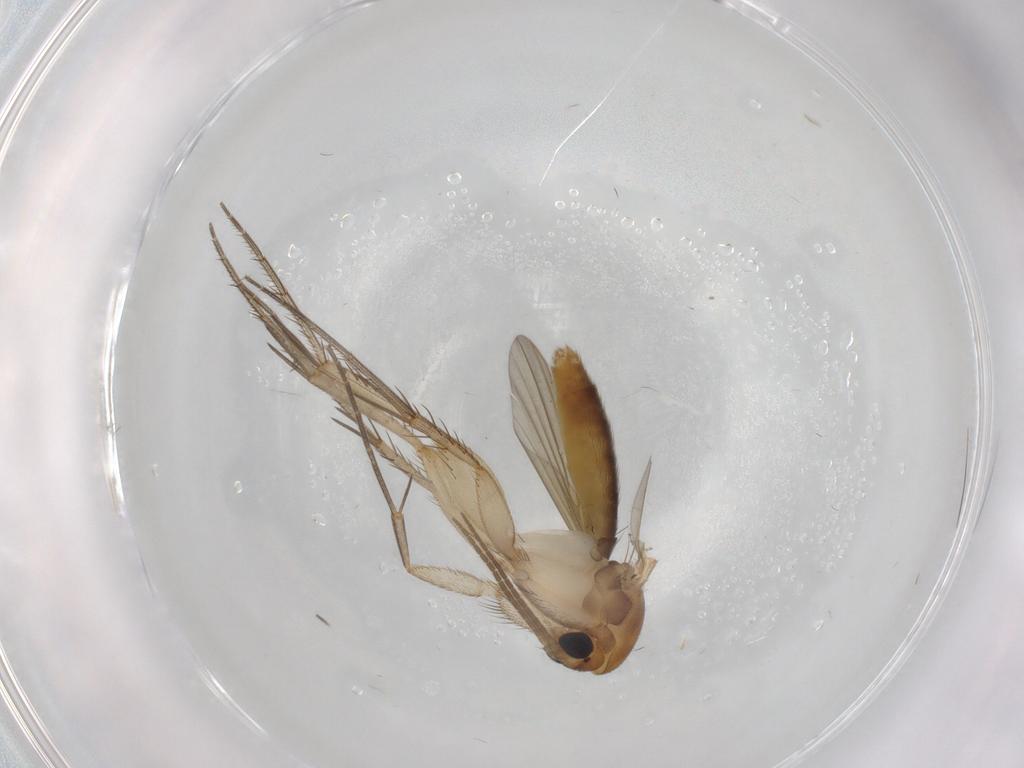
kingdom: Animalia
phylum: Arthropoda
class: Insecta
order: Diptera
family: Mycetophilidae
